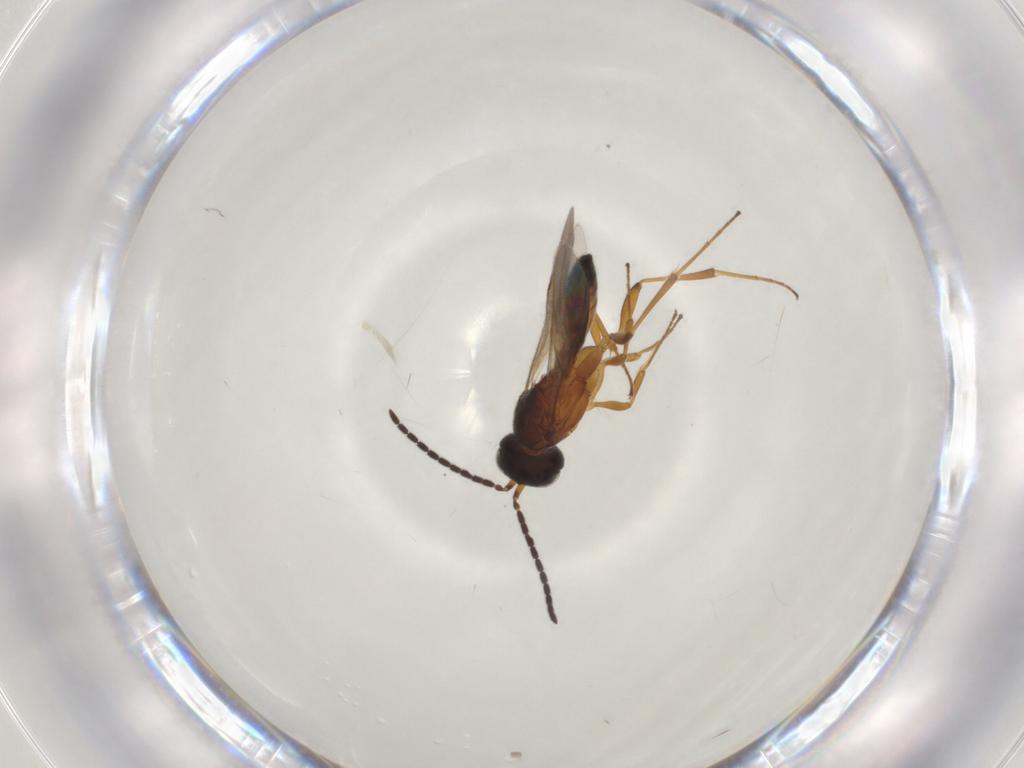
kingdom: Animalia
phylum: Arthropoda
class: Insecta
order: Hymenoptera
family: Scelionidae
